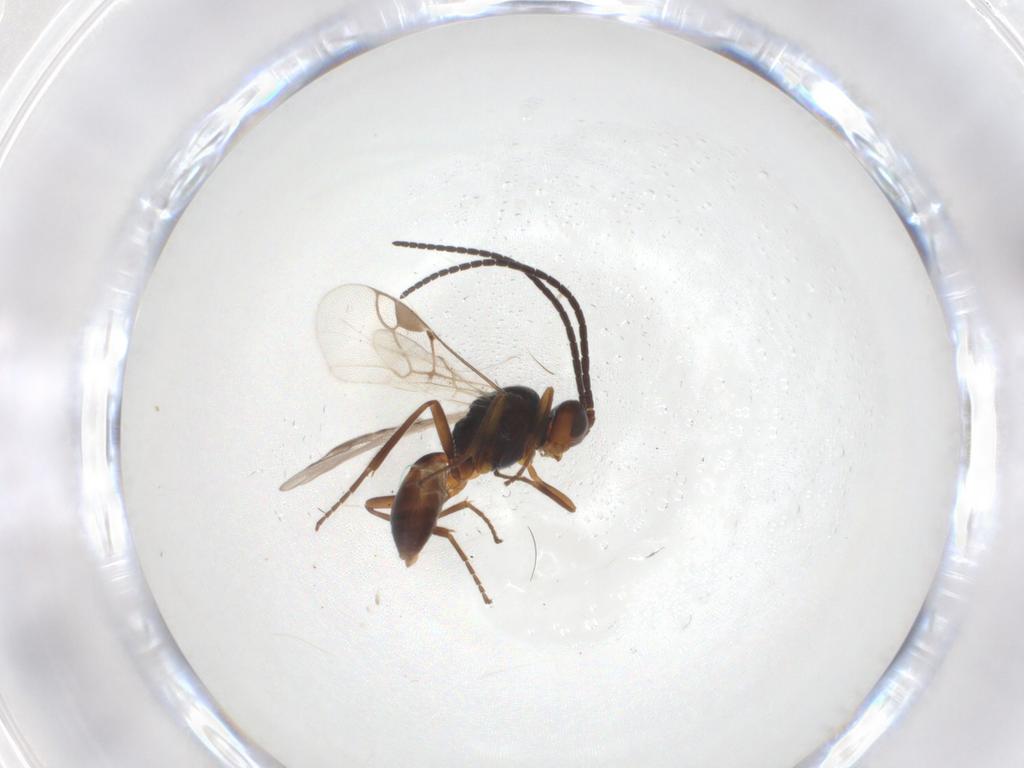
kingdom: Animalia
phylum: Arthropoda
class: Insecta
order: Hymenoptera
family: Braconidae
